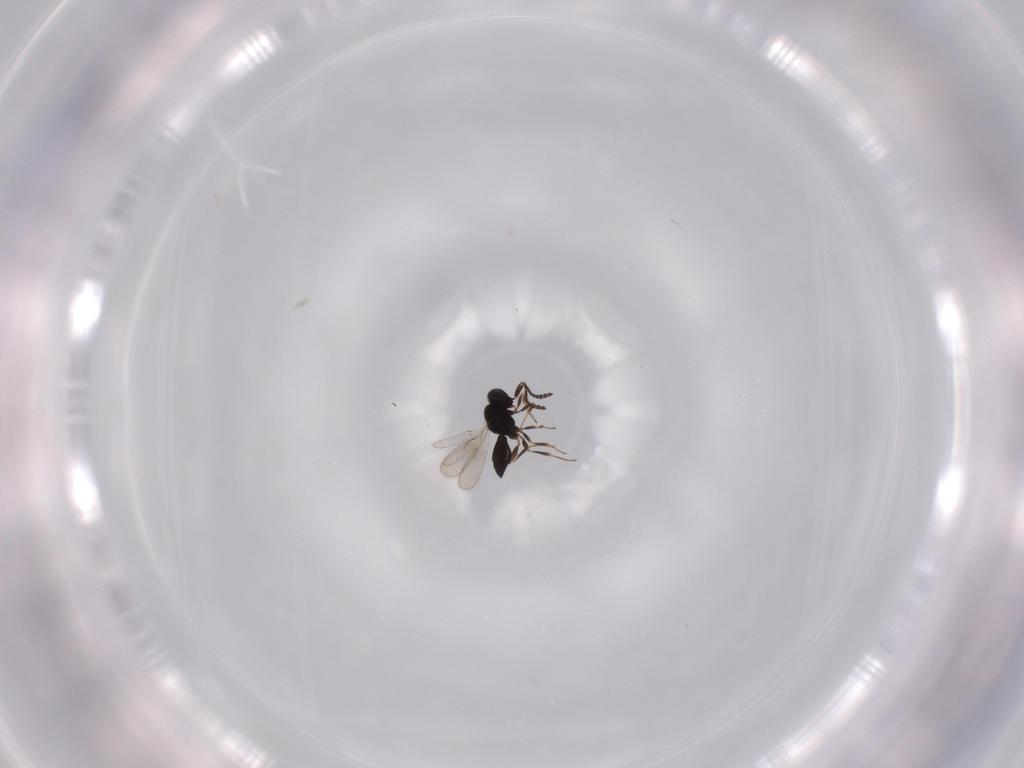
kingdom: Animalia
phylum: Arthropoda
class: Insecta
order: Hymenoptera
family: Scelionidae
